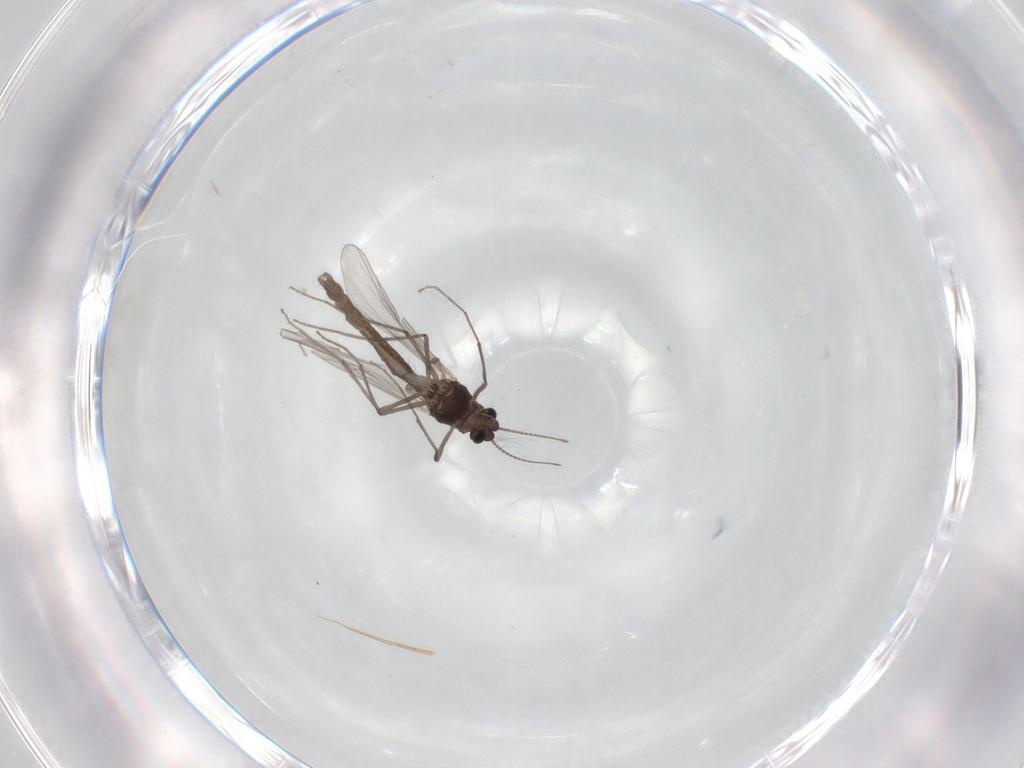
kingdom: Animalia
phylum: Arthropoda
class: Insecta
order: Diptera
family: Chironomidae
